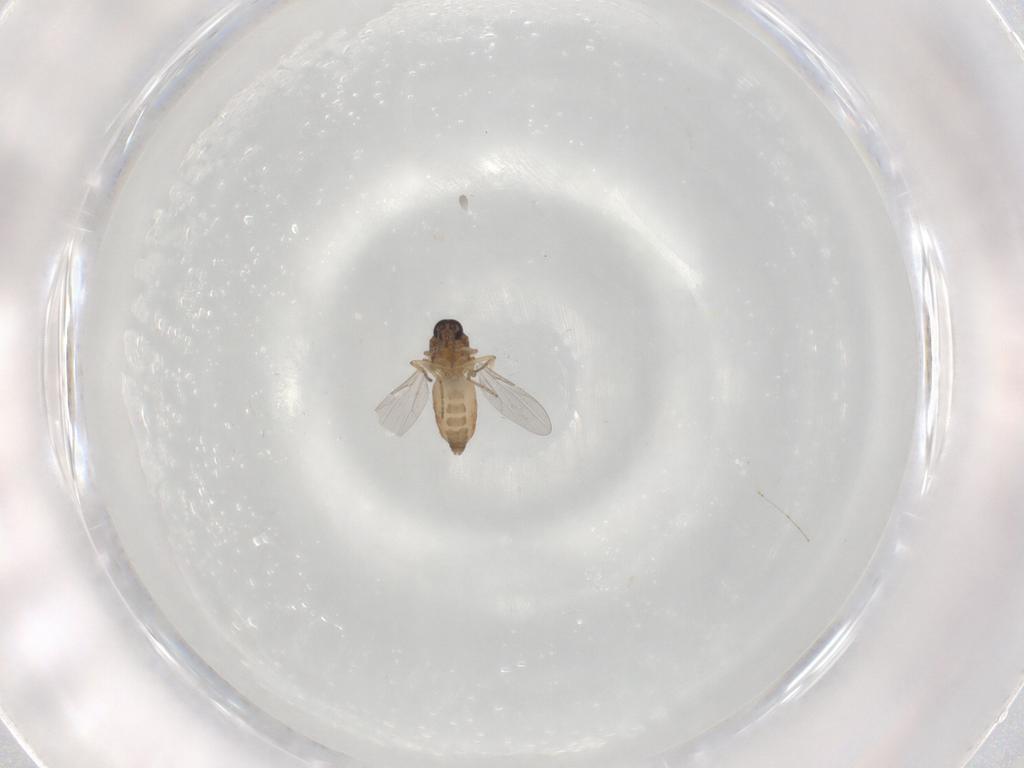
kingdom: Animalia
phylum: Arthropoda
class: Insecta
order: Diptera
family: Ceratopogonidae
